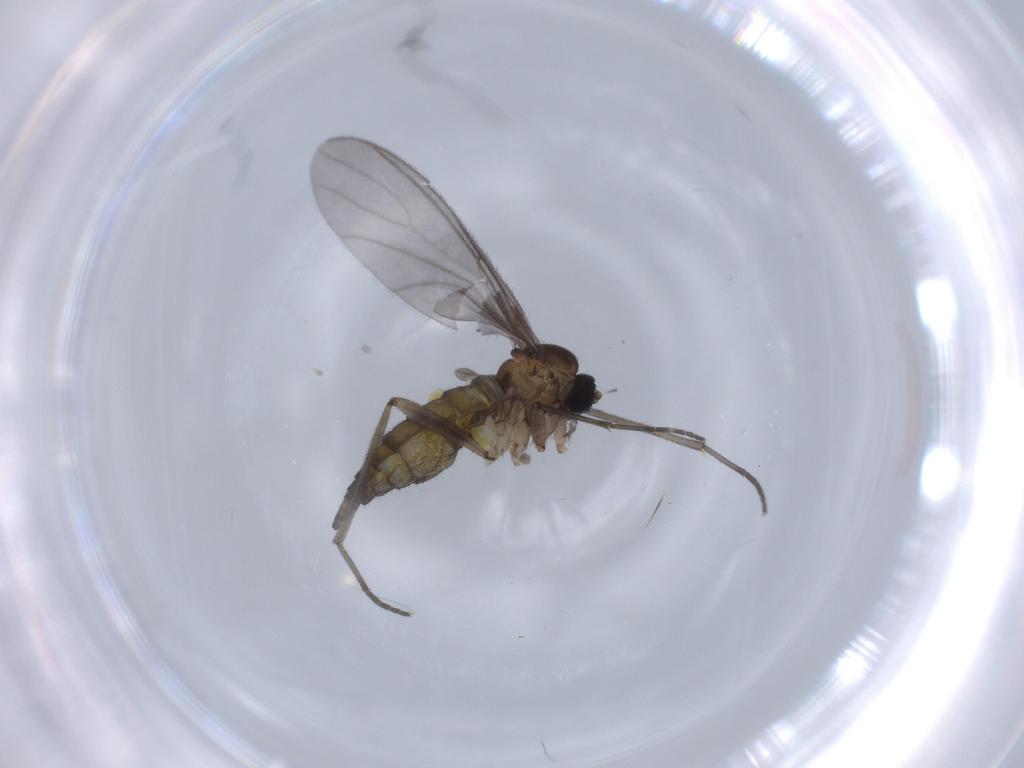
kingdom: Animalia
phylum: Arthropoda
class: Insecta
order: Diptera
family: Sciaridae
